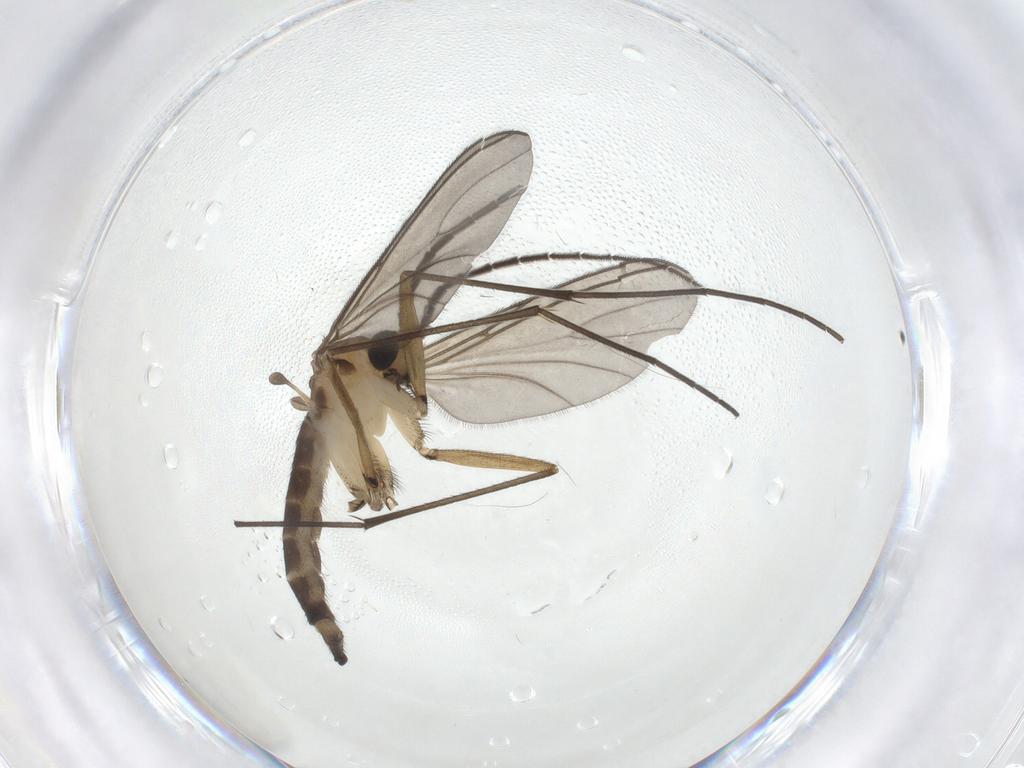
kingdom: Animalia
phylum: Arthropoda
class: Insecta
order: Diptera
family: Sciaridae
